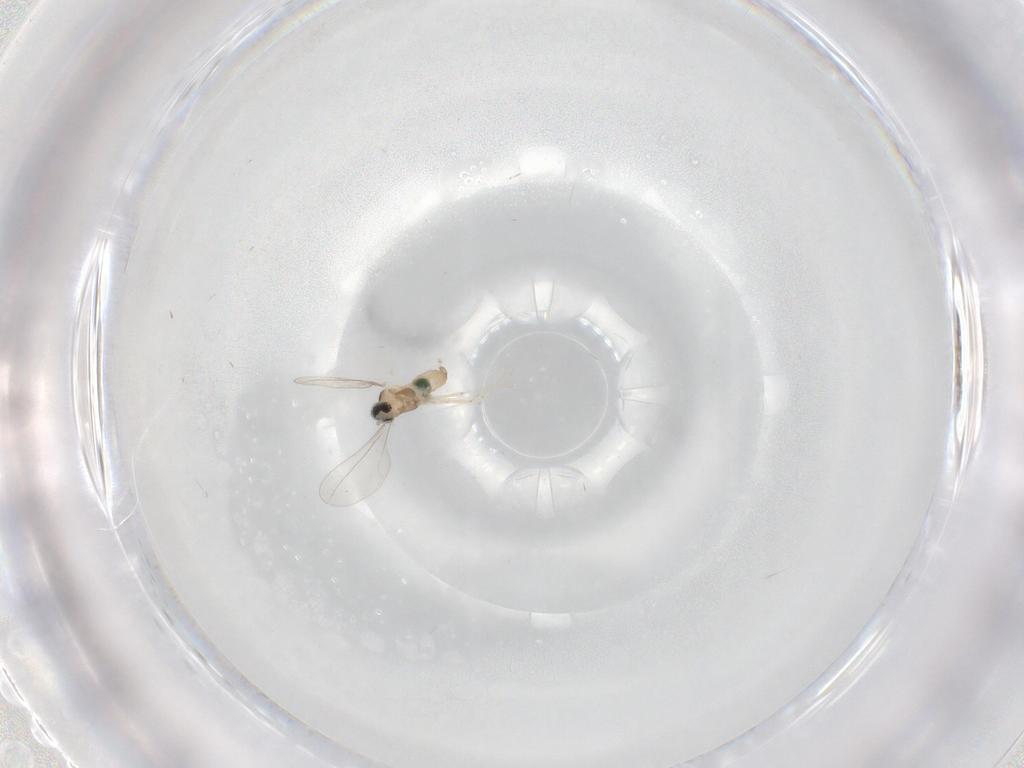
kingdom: Animalia
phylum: Arthropoda
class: Insecta
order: Diptera
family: Cecidomyiidae
